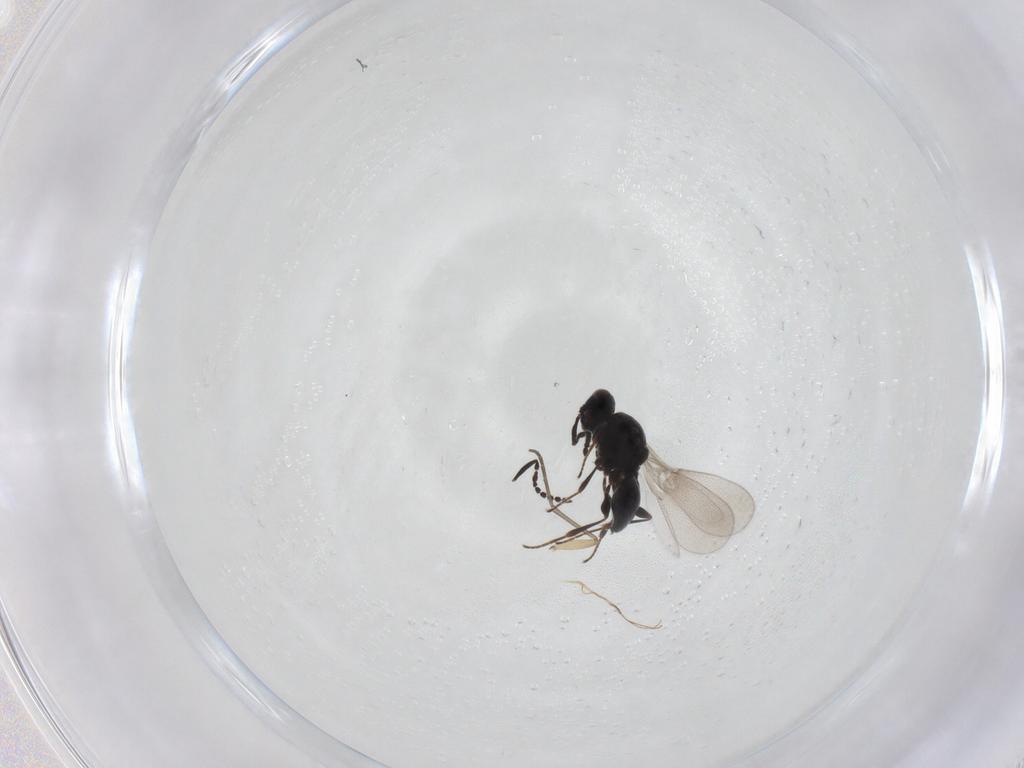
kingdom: Animalia
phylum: Arthropoda
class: Insecta
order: Diptera
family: Mythicomyiidae
